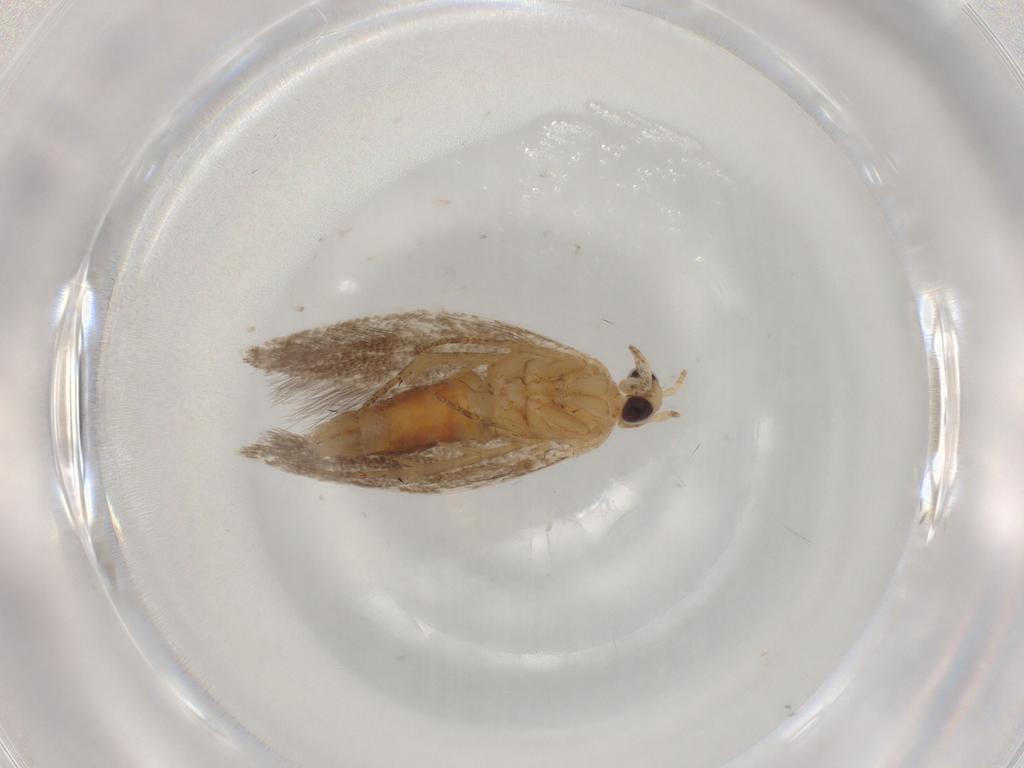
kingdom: Animalia
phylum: Arthropoda
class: Insecta
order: Lepidoptera
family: Plutellidae
